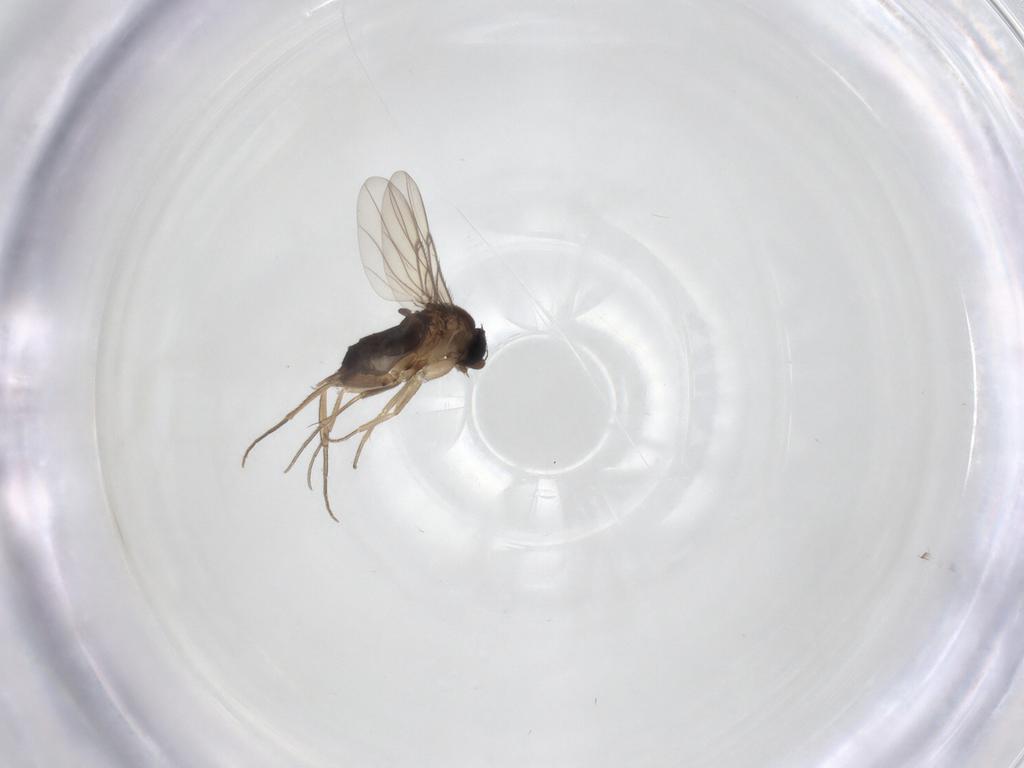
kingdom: Animalia
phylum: Arthropoda
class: Insecta
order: Diptera
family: Phoridae
